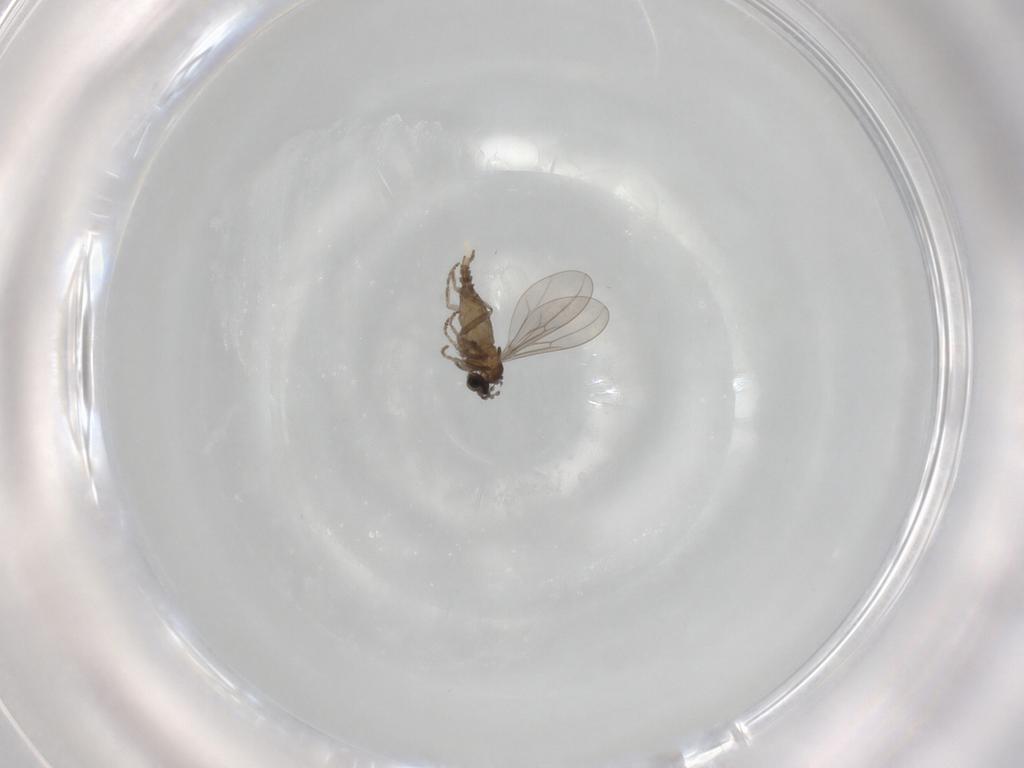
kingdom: Animalia
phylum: Arthropoda
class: Insecta
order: Diptera
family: Cecidomyiidae
